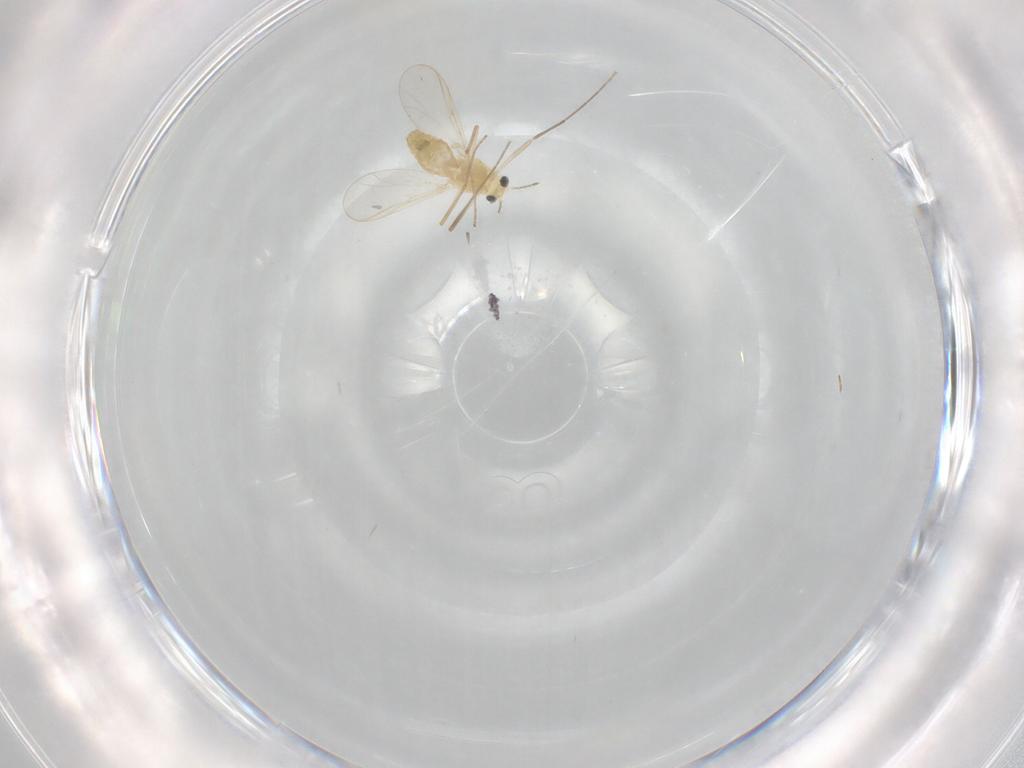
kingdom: Animalia
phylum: Arthropoda
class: Insecta
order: Diptera
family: Chironomidae
